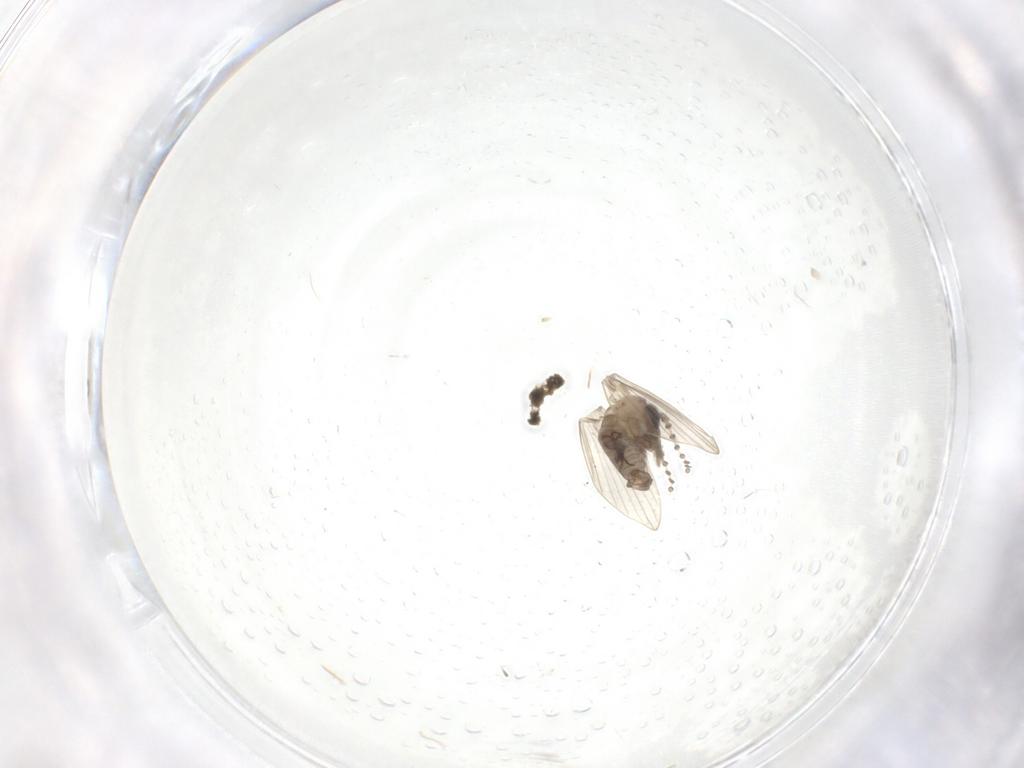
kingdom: Animalia
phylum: Arthropoda
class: Insecta
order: Diptera
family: Psychodidae
